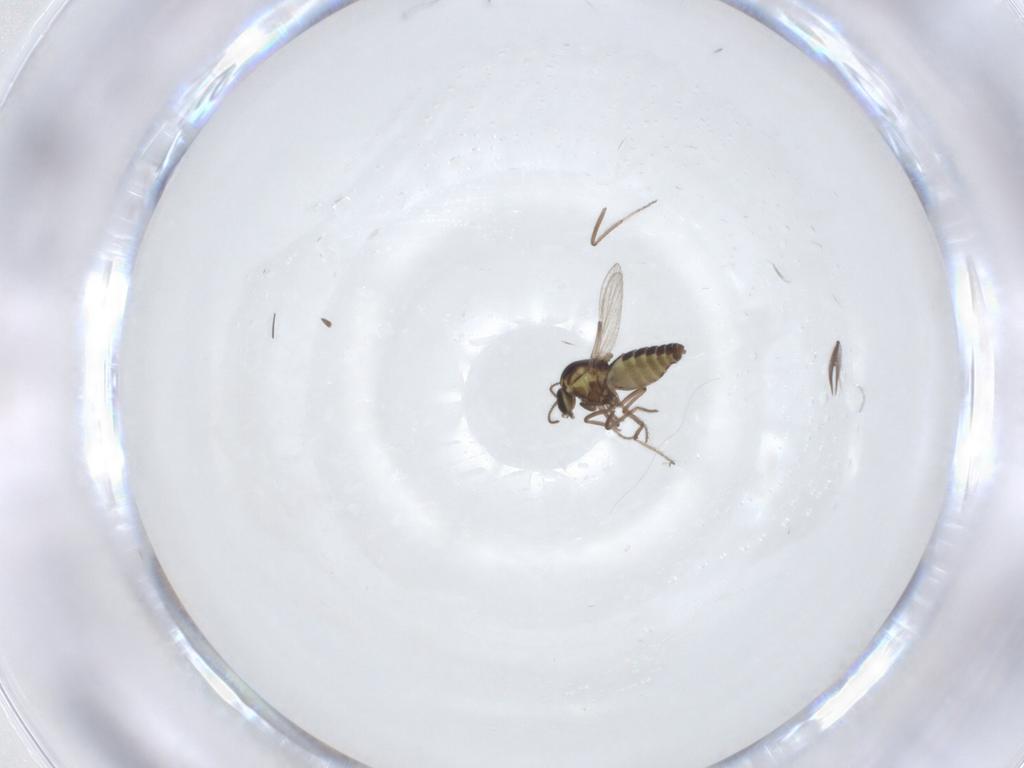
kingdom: Animalia
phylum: Arthropoda
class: Insecta
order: Diptera
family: Ceratopogonidae
